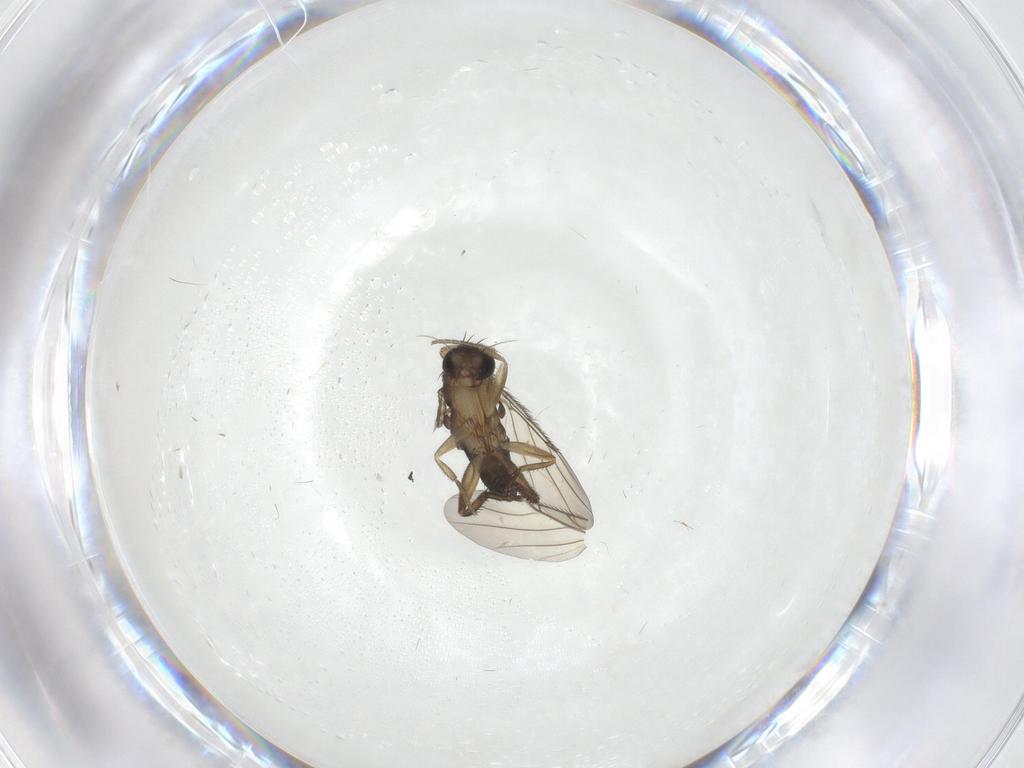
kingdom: Animalia
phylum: Arthropoda
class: Insecta
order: Diptera
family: Phoridae
